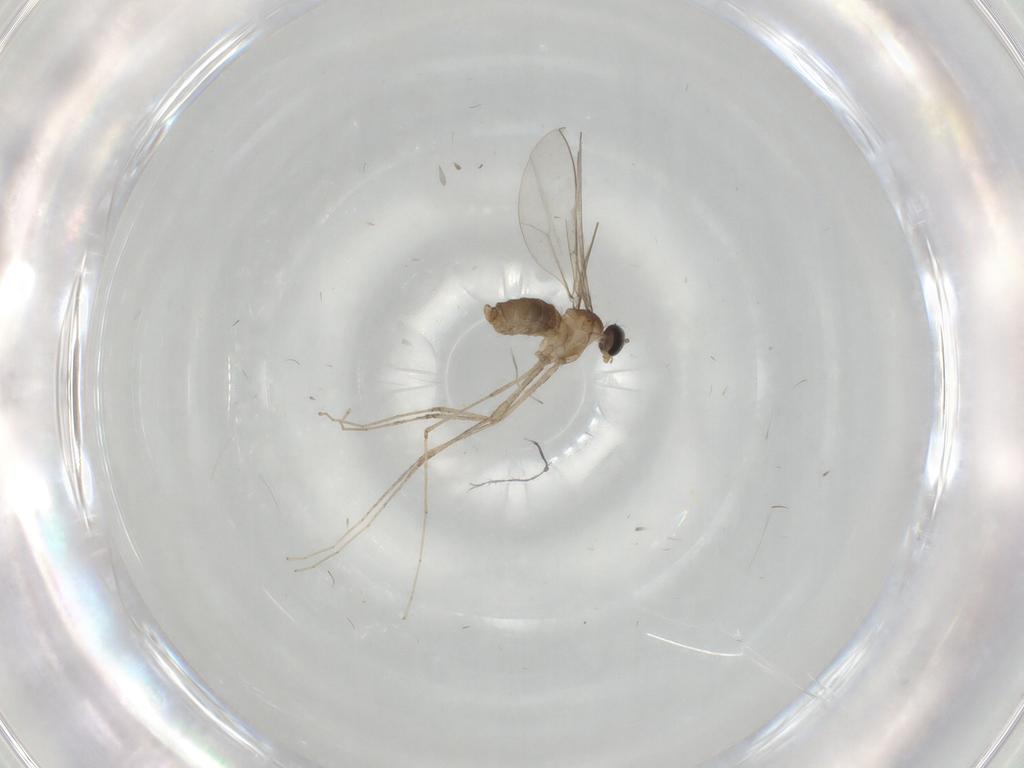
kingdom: Animalia
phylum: Arthropoda
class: Insecta
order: Diptera
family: Cecidomyiidae
